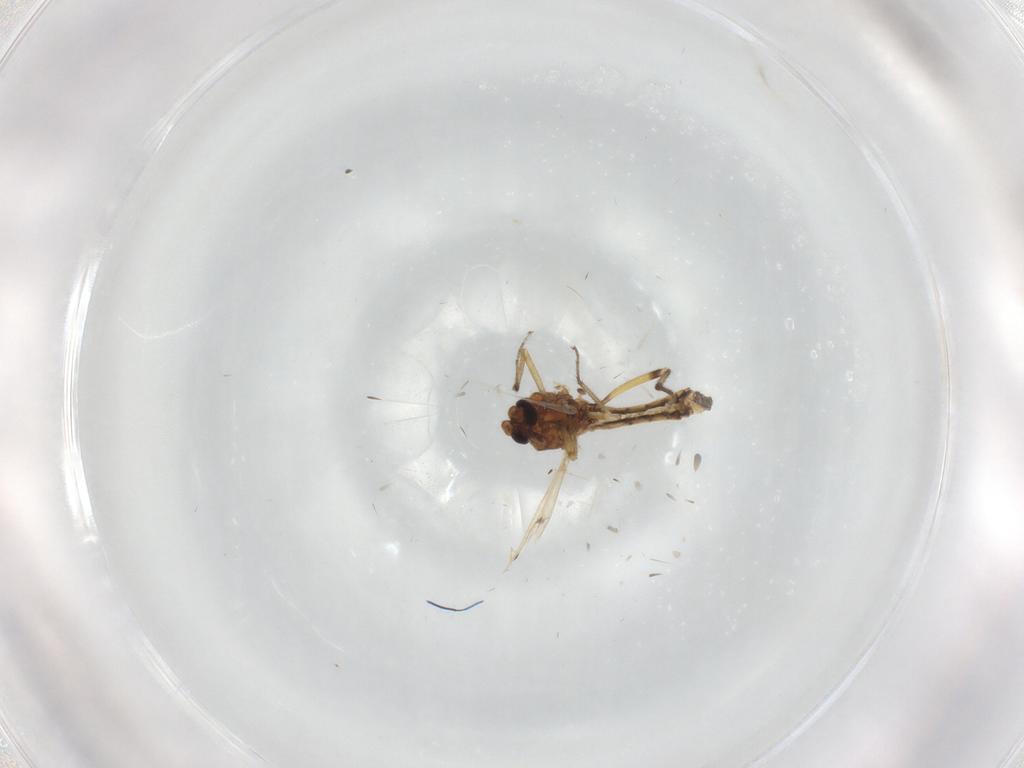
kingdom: Animalia
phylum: Arthropoda
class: Insecta
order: Diptera
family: Ceratopogonidae
